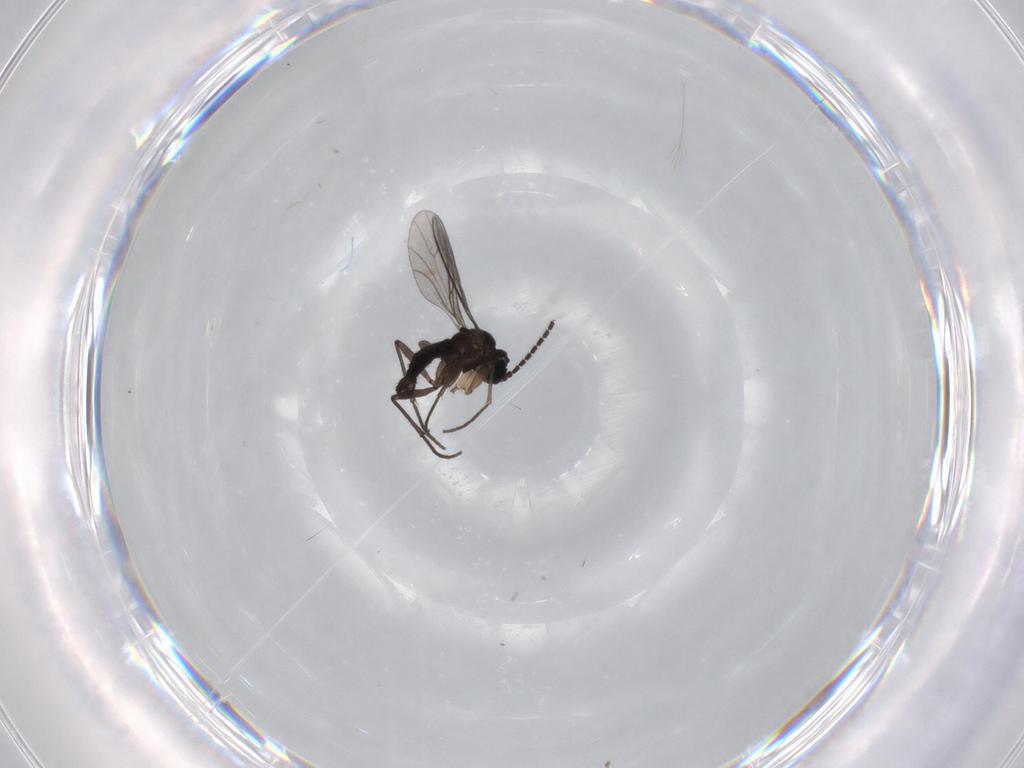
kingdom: Animalia
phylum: Arthropoda
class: Insecta
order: Diptera
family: Sciaridae
